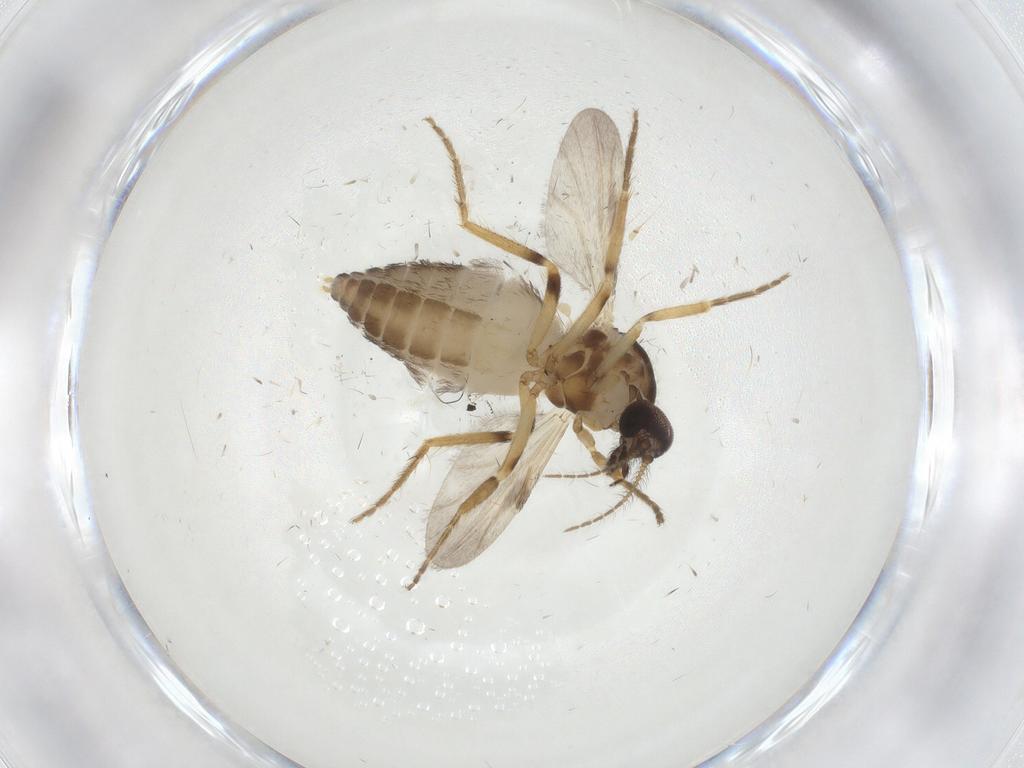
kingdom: Animalia
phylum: Arthropoda
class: Insecta
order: Diptera
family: Ceratopogonidae
